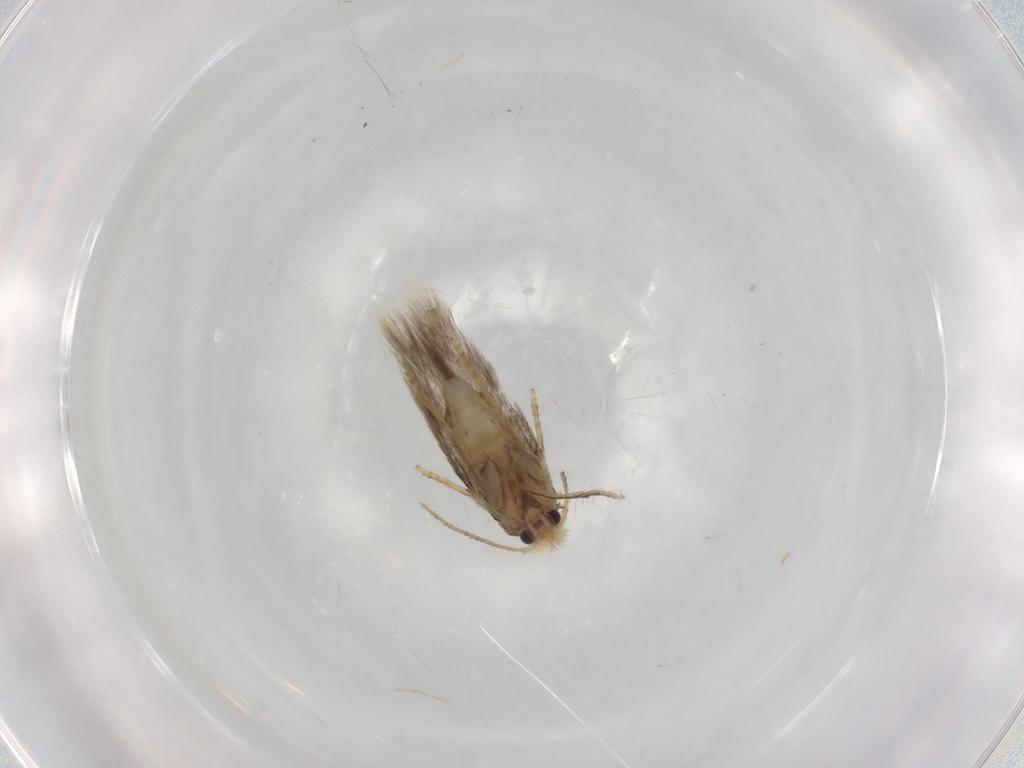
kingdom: Animalia
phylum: Arthropoda
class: Insecta
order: Lepidoptera
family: Nepticulidae
